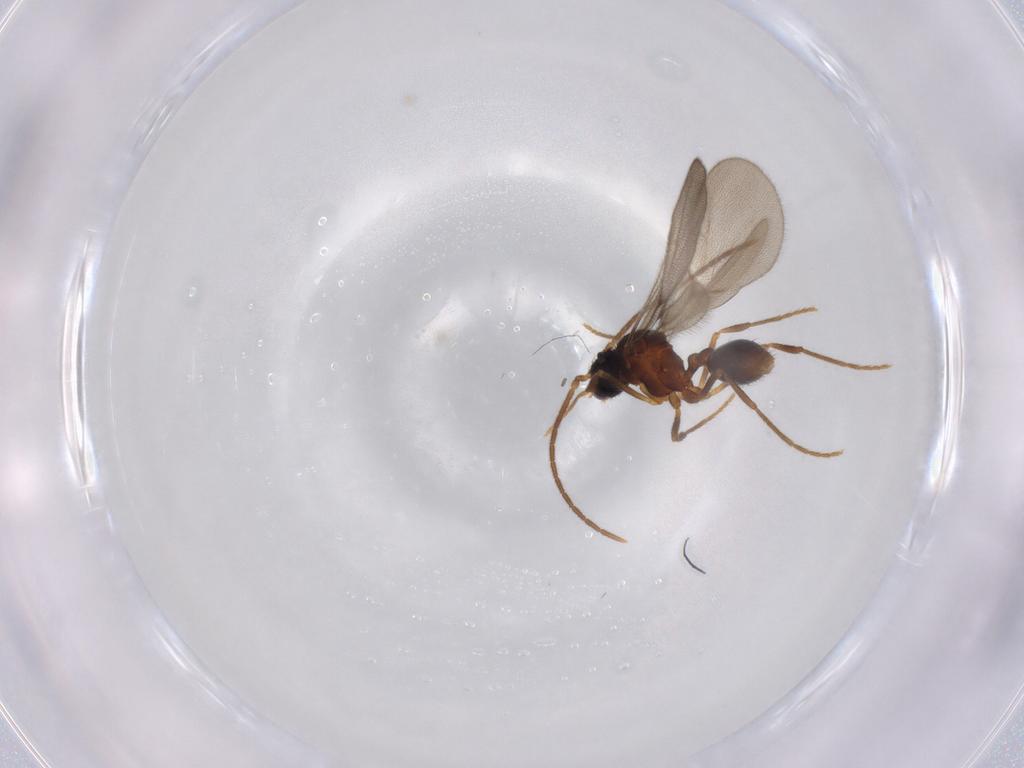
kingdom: Animalia
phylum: Arthropoda
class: Insecta
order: Hymenoptera
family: Formicidae
